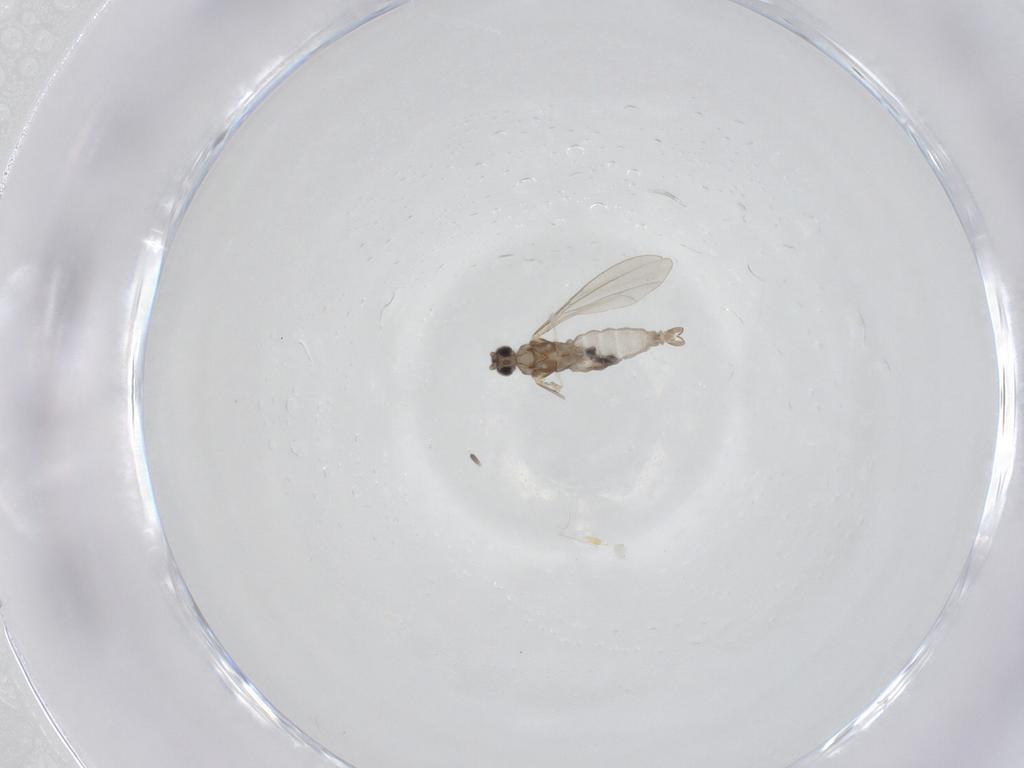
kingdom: Animalia
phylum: Arthropoda
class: Insecta
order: Diptera
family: Cecidomyiidae
